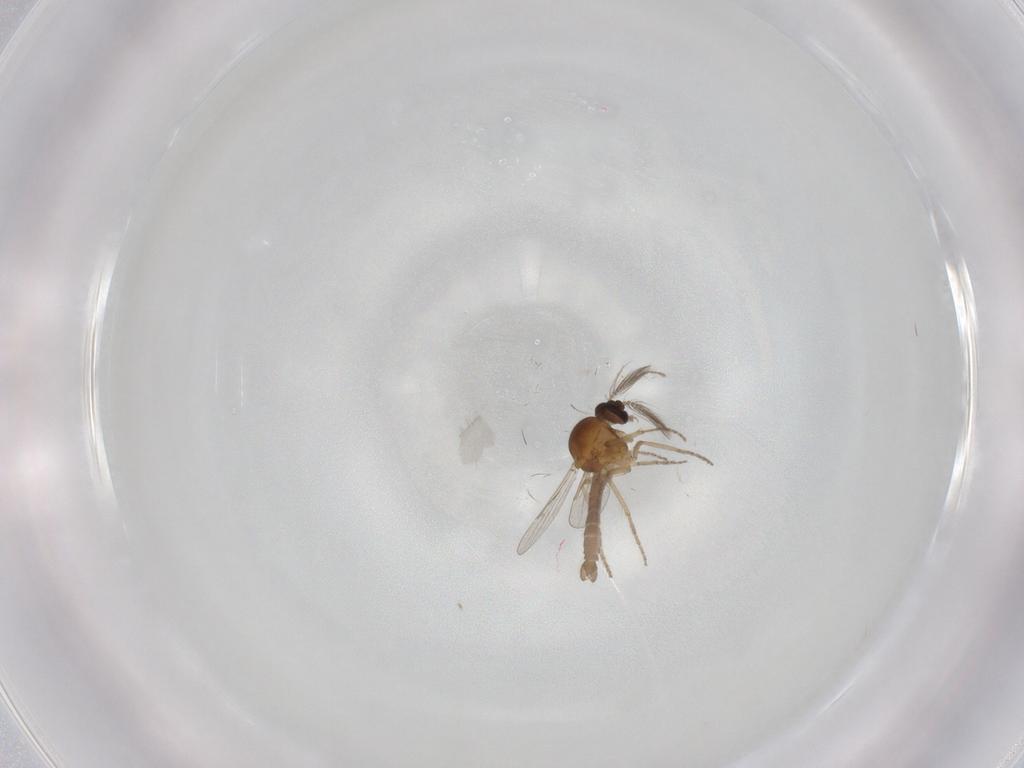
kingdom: Animalia
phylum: Arthropoda
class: Insecta
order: Diptera
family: Ceratopogonidae
